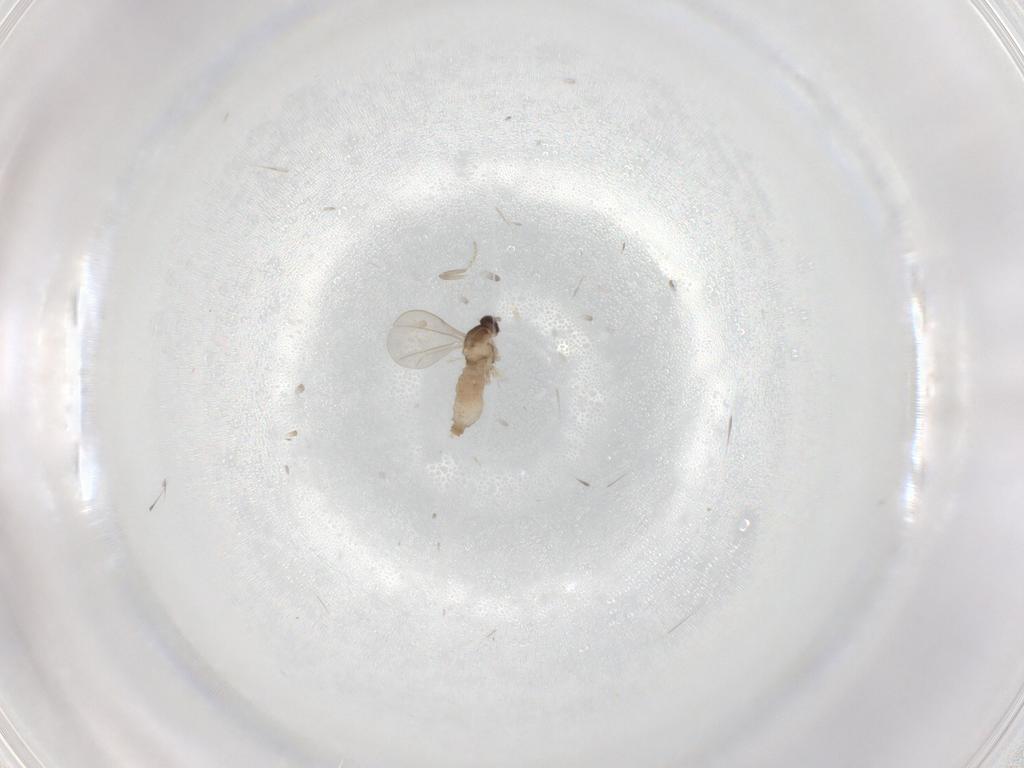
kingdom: Animalia
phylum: Arthropoda
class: Insecta
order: Diptera
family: Cecidomyiidae
